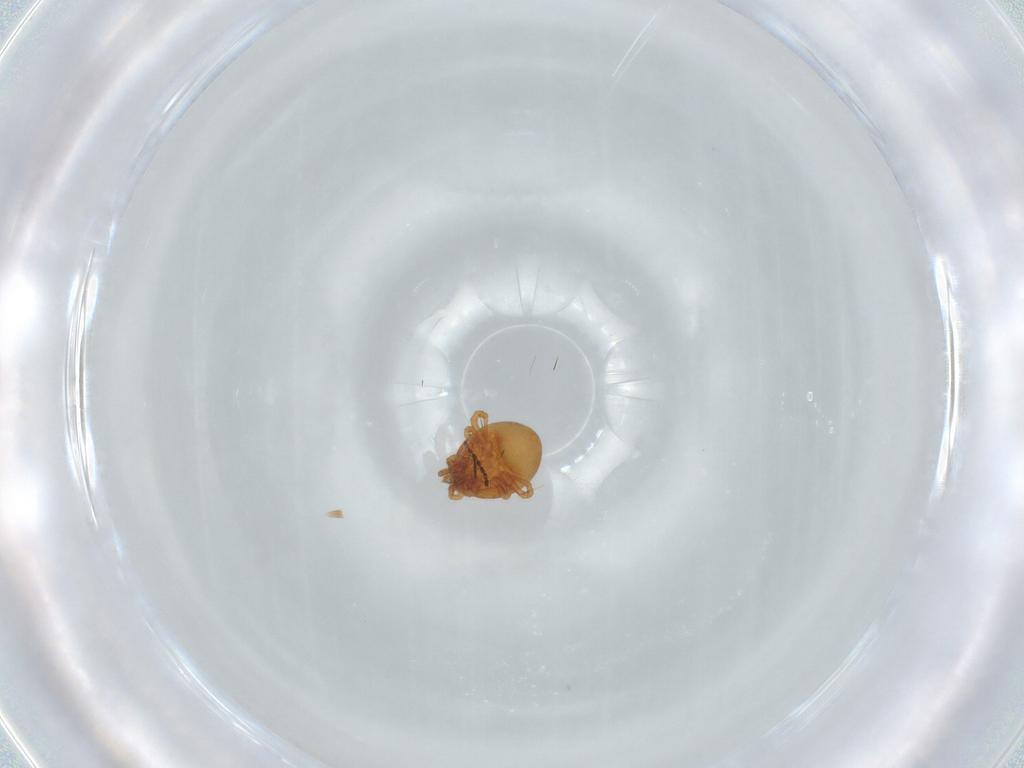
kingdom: Animalia
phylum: Arthropoda
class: Arachnida
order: Mesostigmata
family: Parasitidae
